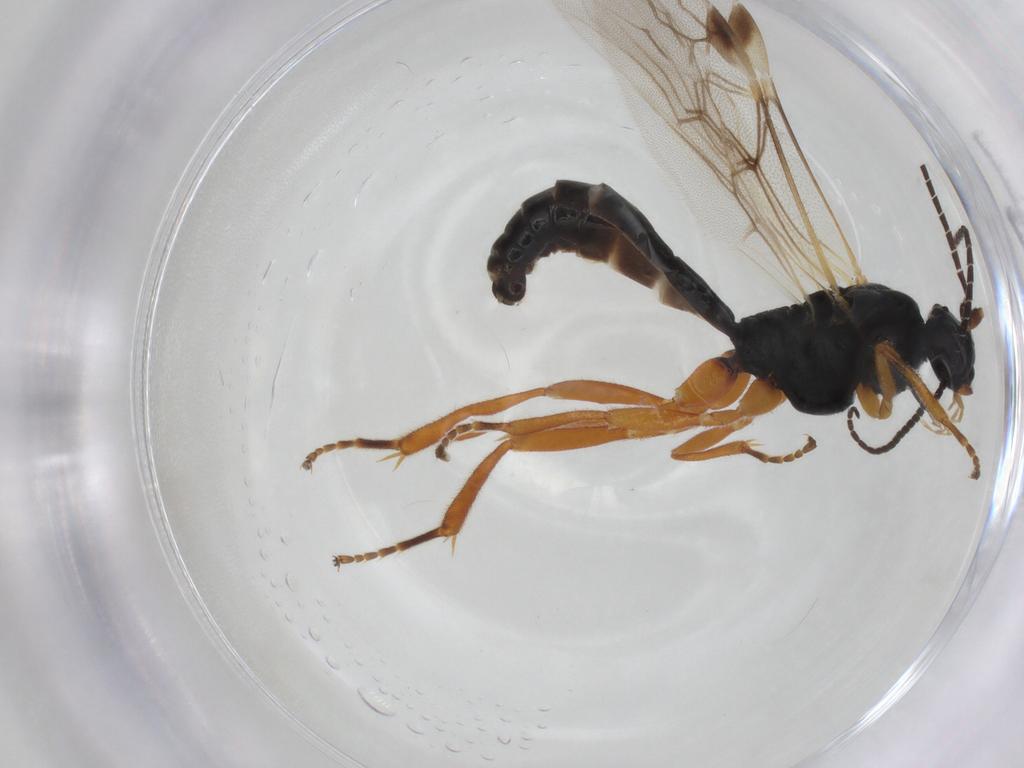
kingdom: Animalia
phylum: Arthropoda
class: Insecta
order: Hymenoptera
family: Braconidae
